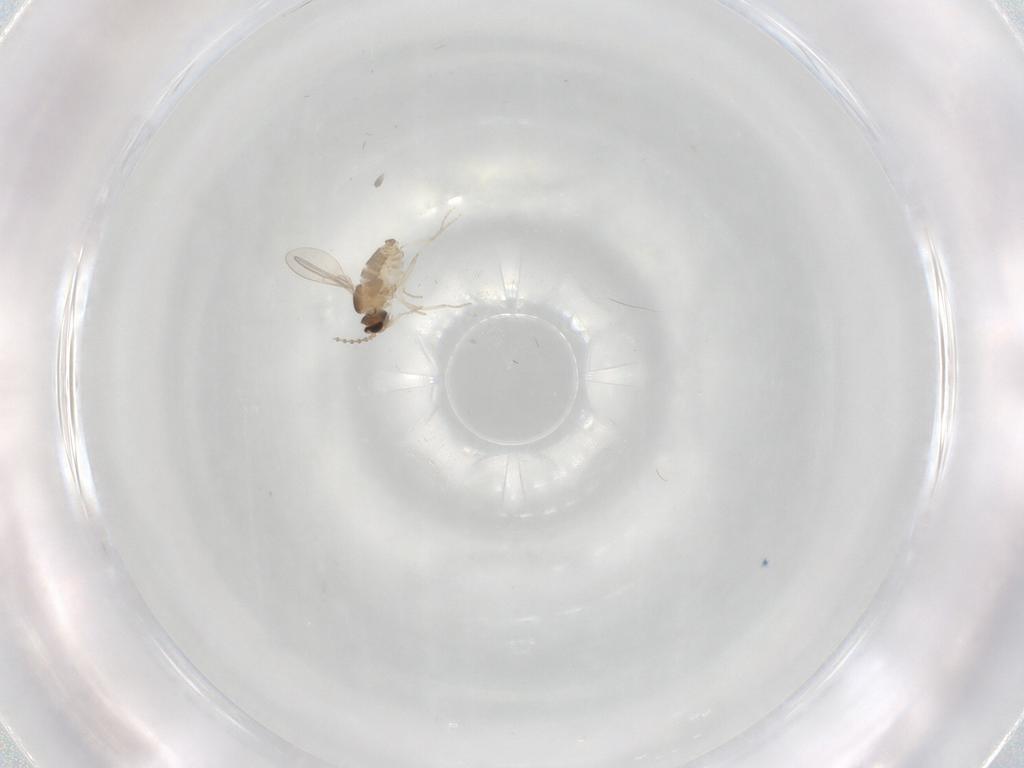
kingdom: Animalia
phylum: Arthropoda
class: Insecta
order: Diptera
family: Cecidomyiidae
